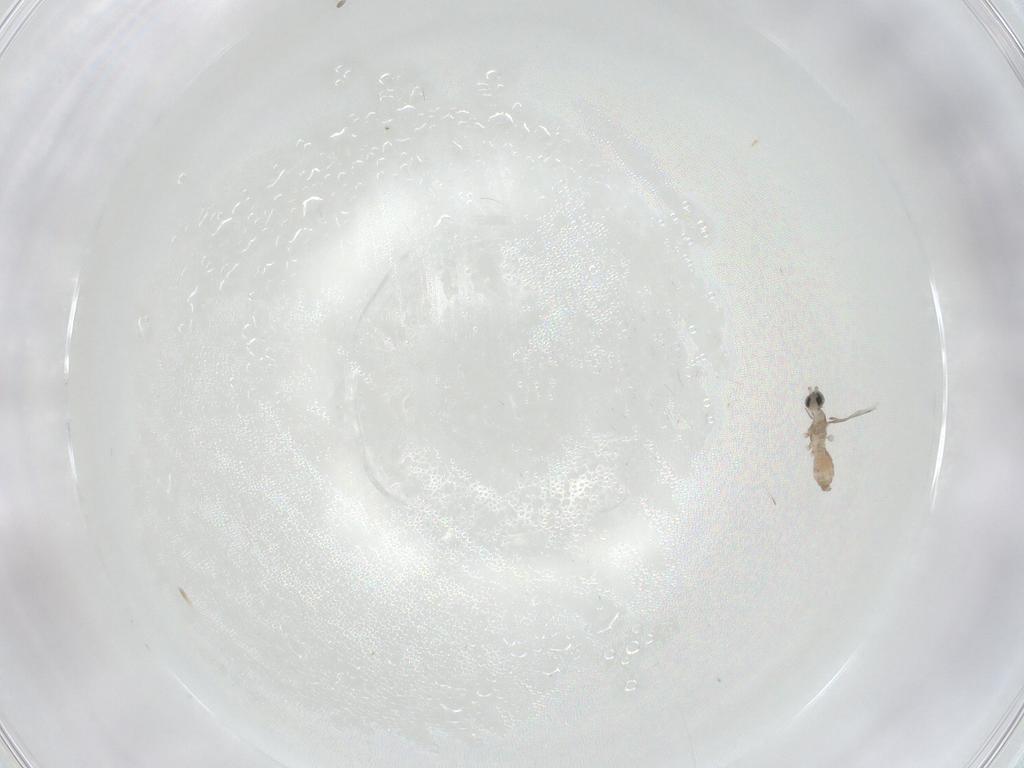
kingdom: Animalia
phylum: Arthropoda
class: Insecta
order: Diptera
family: Cecidomyiidae
